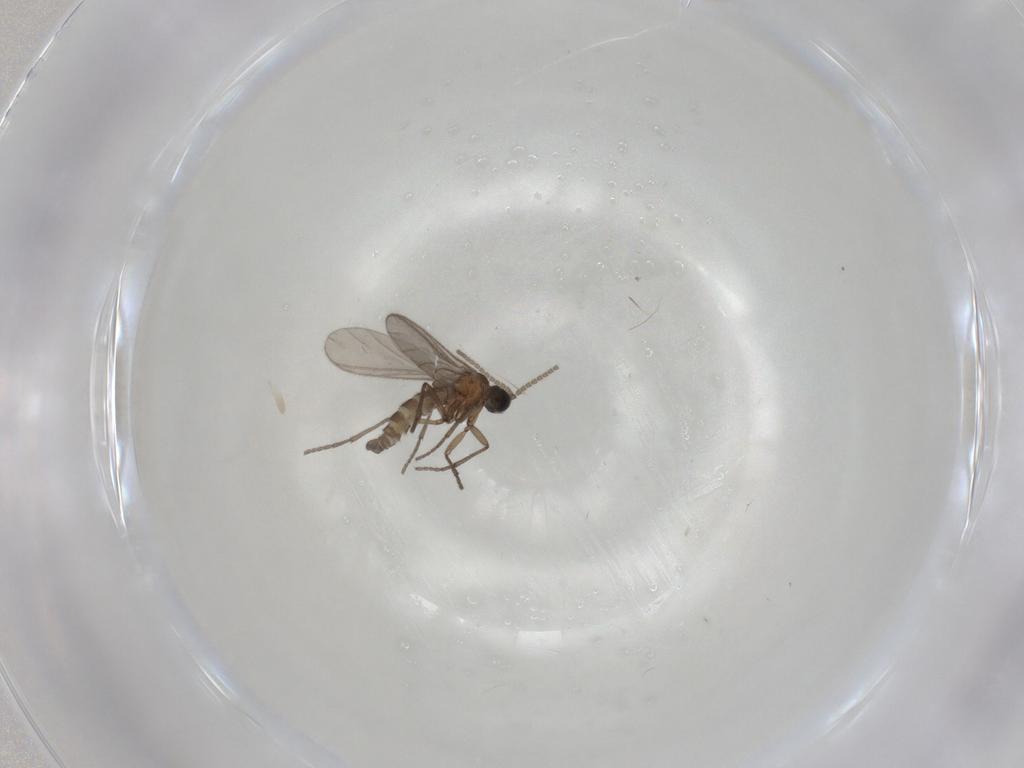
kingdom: Animalia
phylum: Arthropoda
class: Insecta
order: Diptera
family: Sciaridae
